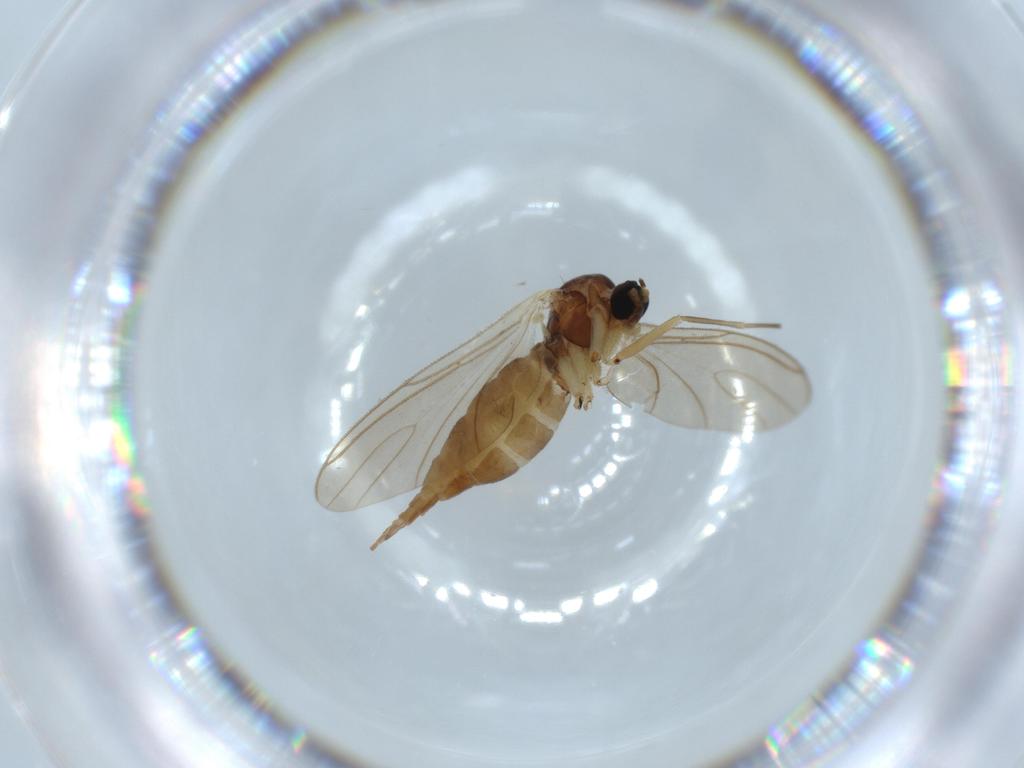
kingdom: Animalia
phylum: Arthropoda
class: Insecta
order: Diptera
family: Sciaridae
